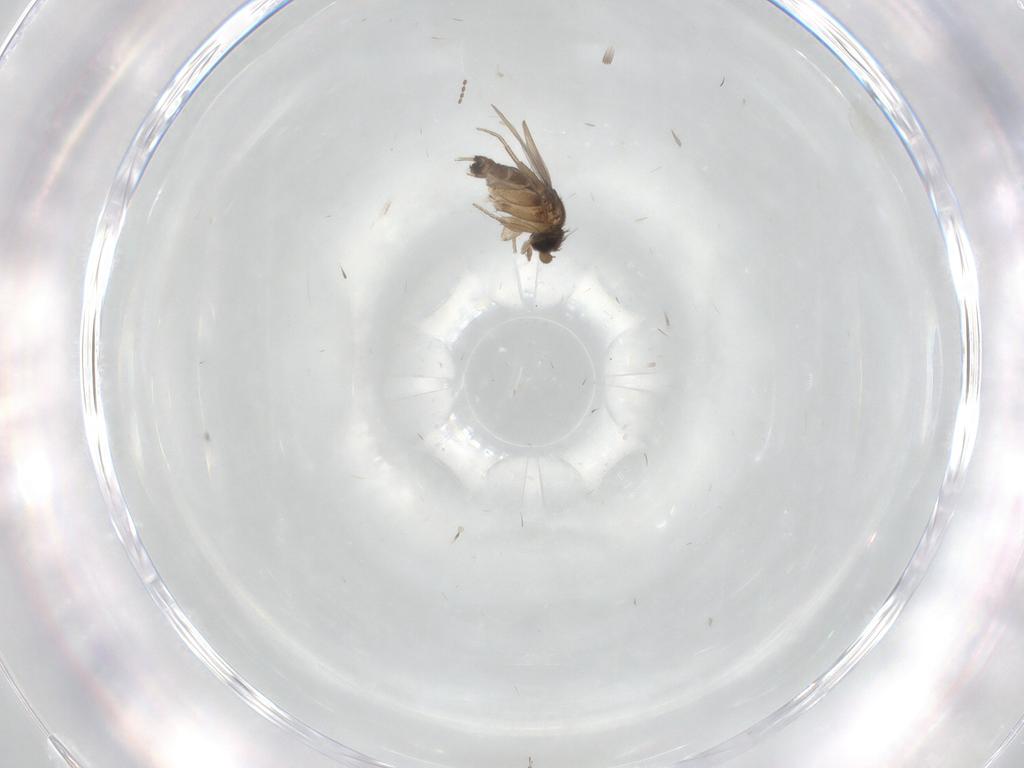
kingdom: Animalia
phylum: Arthropoda
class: Insecta
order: Diptera
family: Phoridae
